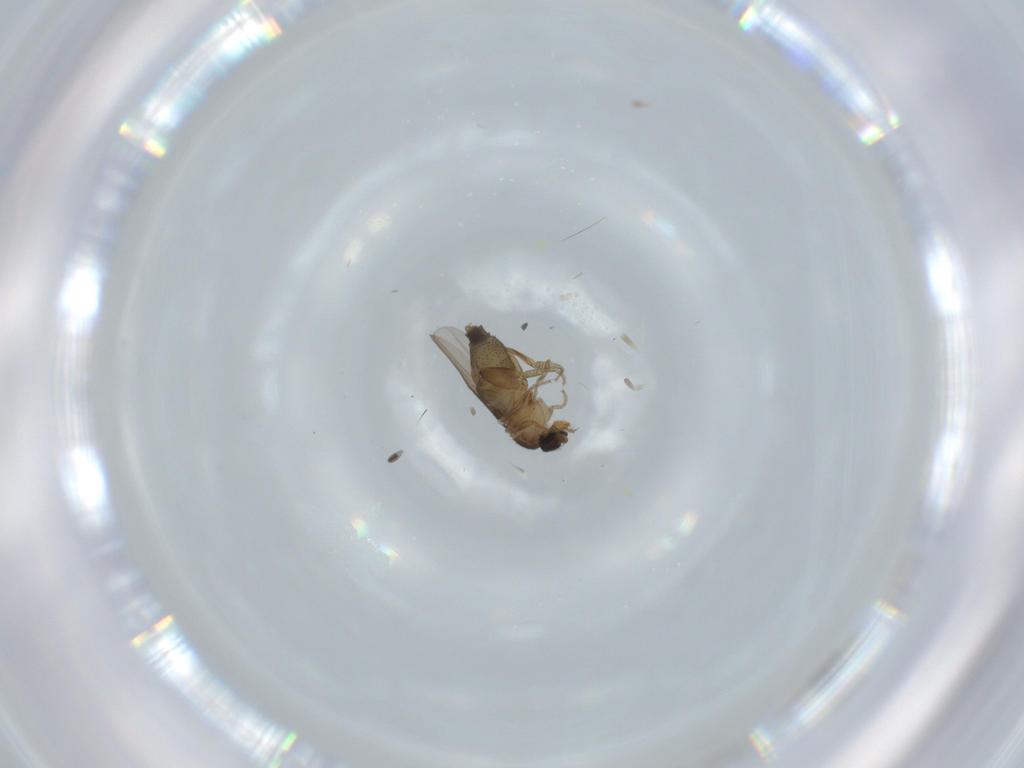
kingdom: Animalia
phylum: Arthropoda
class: Insecta
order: Diptera
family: Phoridae
